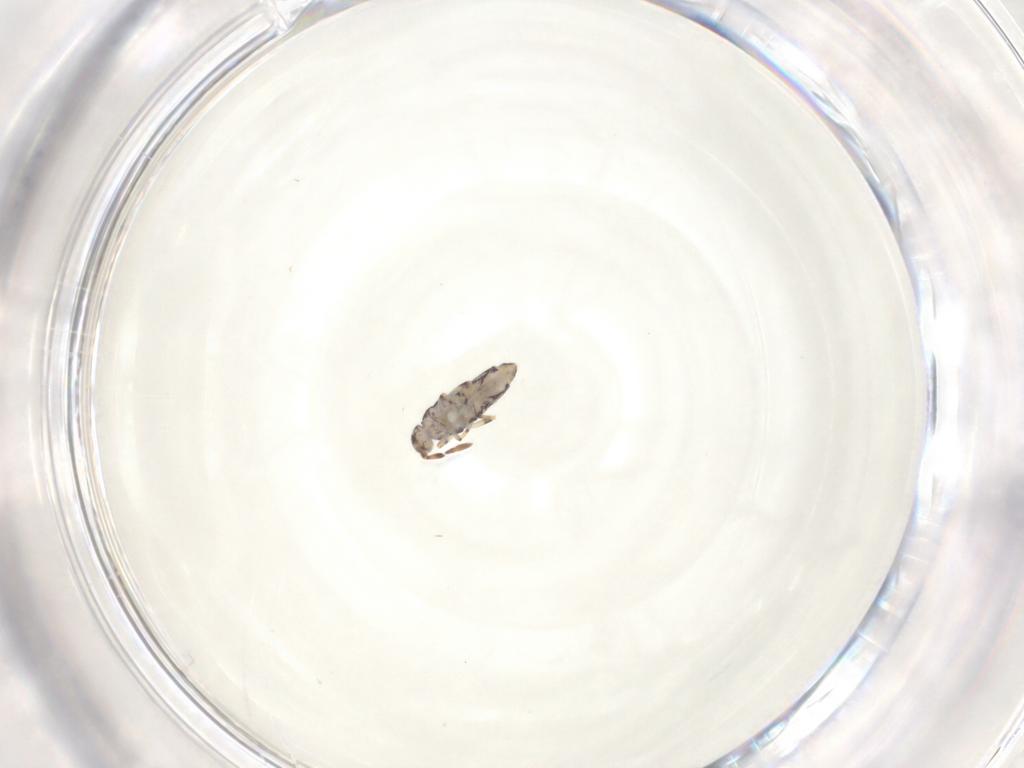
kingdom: Animalia
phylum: Arthropoda
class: Collembola
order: Entomobryomorpha
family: Entomobryidae
